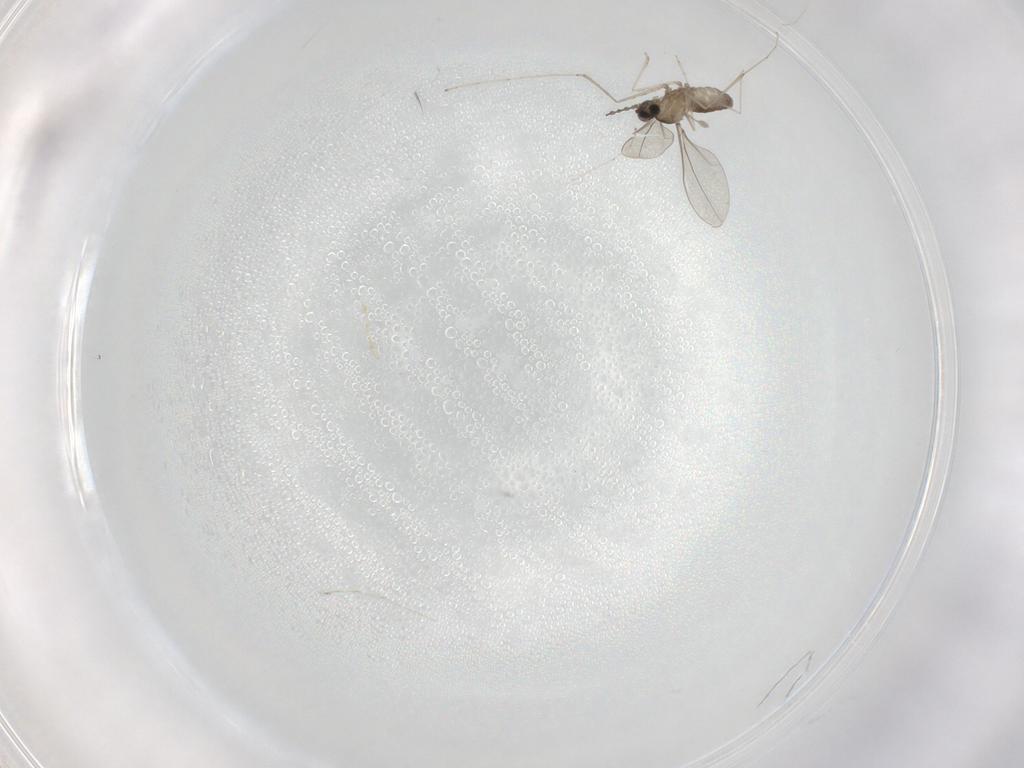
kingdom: Animalia
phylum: Arthropoda
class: Insecta
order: Diptera
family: Cecidomyiidae
